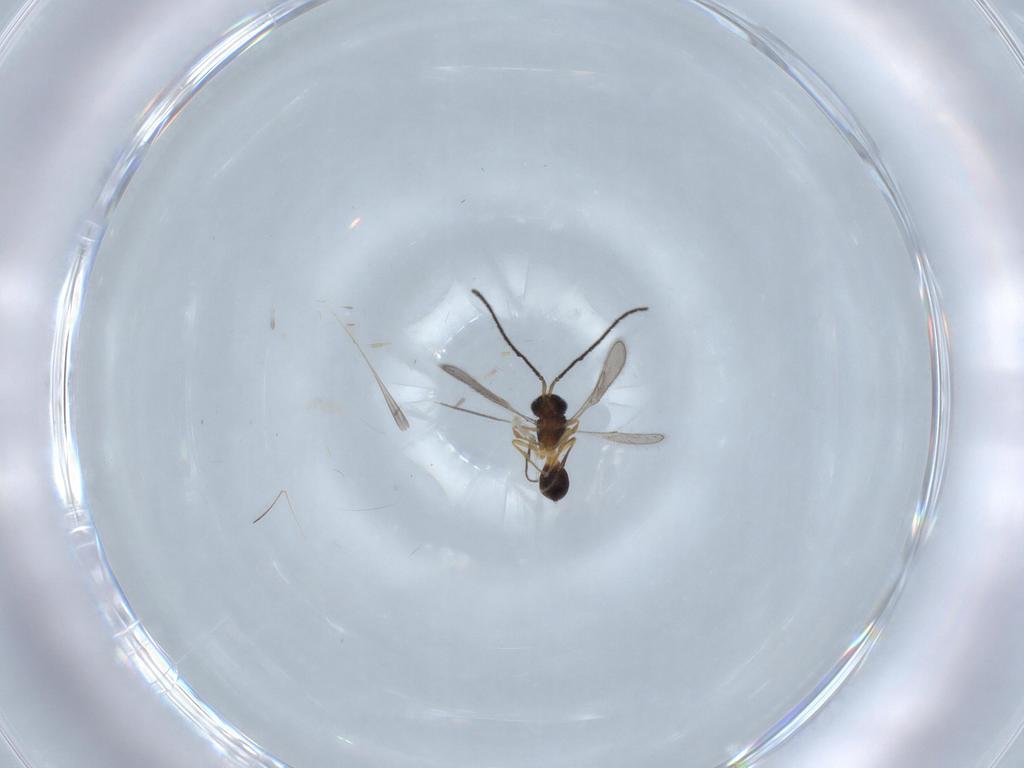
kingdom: Animalia
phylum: Arthropoda
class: Insecta
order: Hymenoptera
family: Scelionidae
